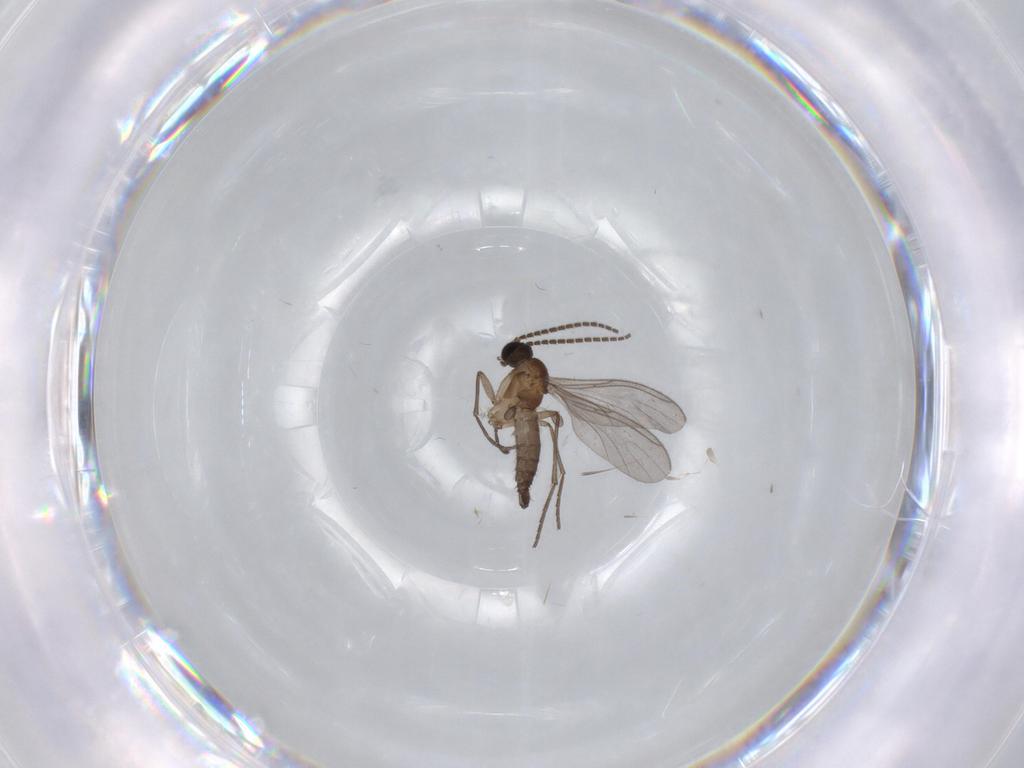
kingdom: Animalia
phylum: Arthropoda
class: Insecta
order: Diptera
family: Sciaridae
